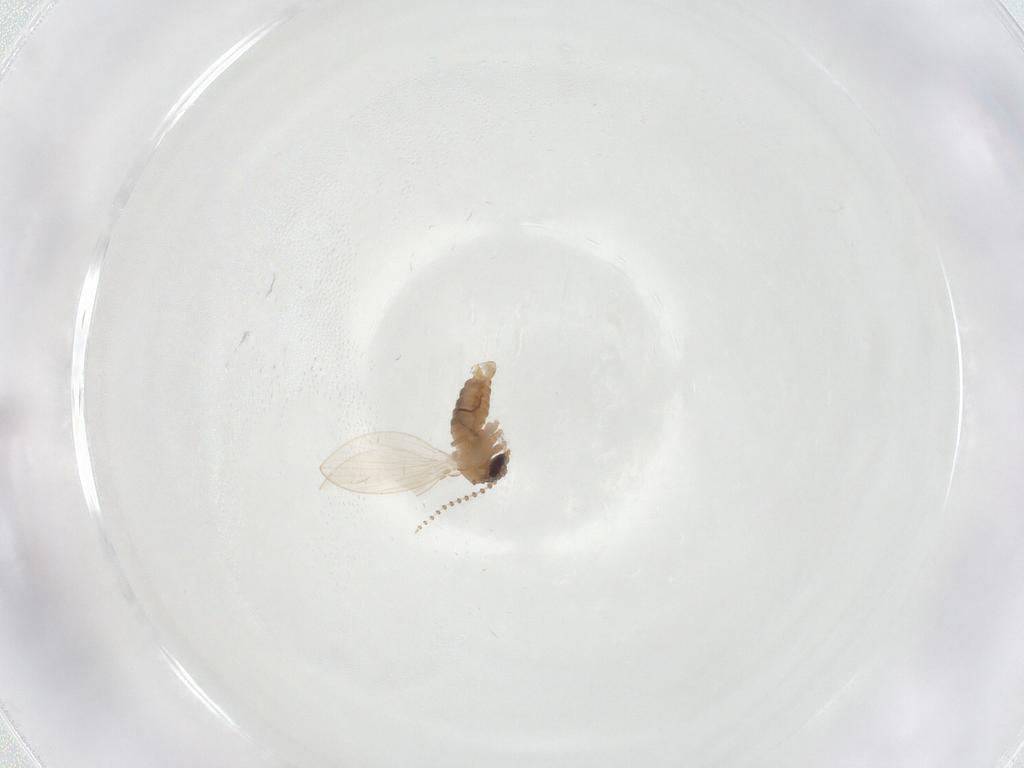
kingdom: Animalia
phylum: Arthropoda
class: Insecta
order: Diptera
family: Psychodidae
